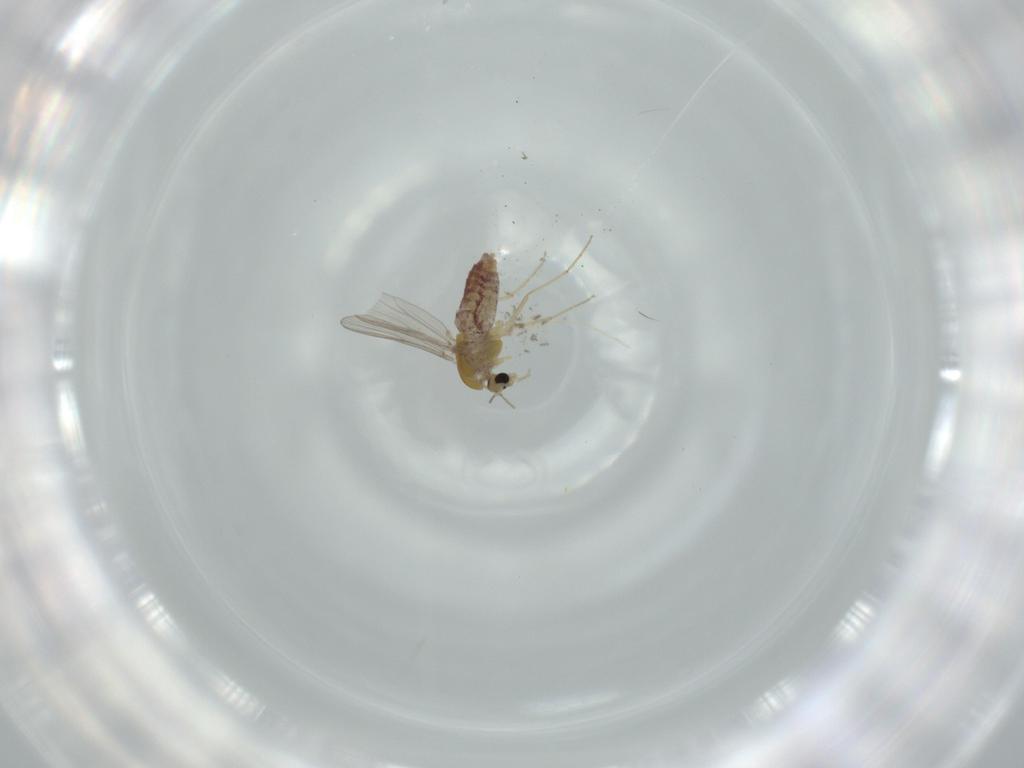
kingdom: Animalia
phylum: Arthropoda
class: Insecta
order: Diptera
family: Chironomidae
